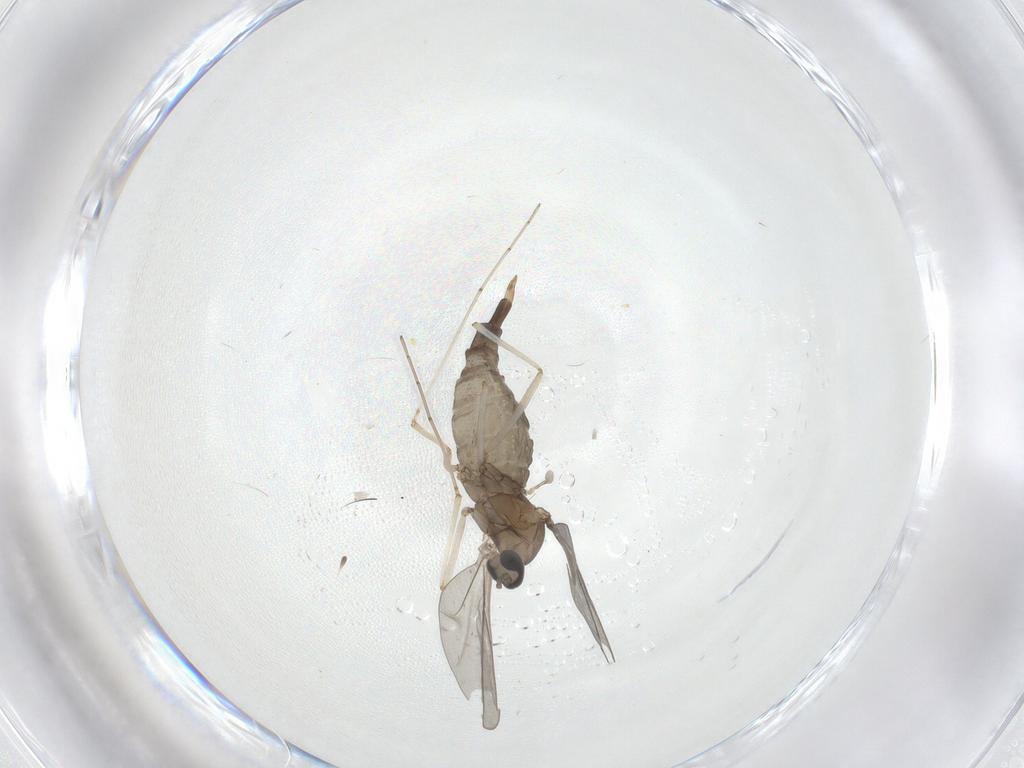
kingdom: Animalia
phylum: Arthropoda
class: Insecta
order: Diptera
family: Cecidomyiidae
